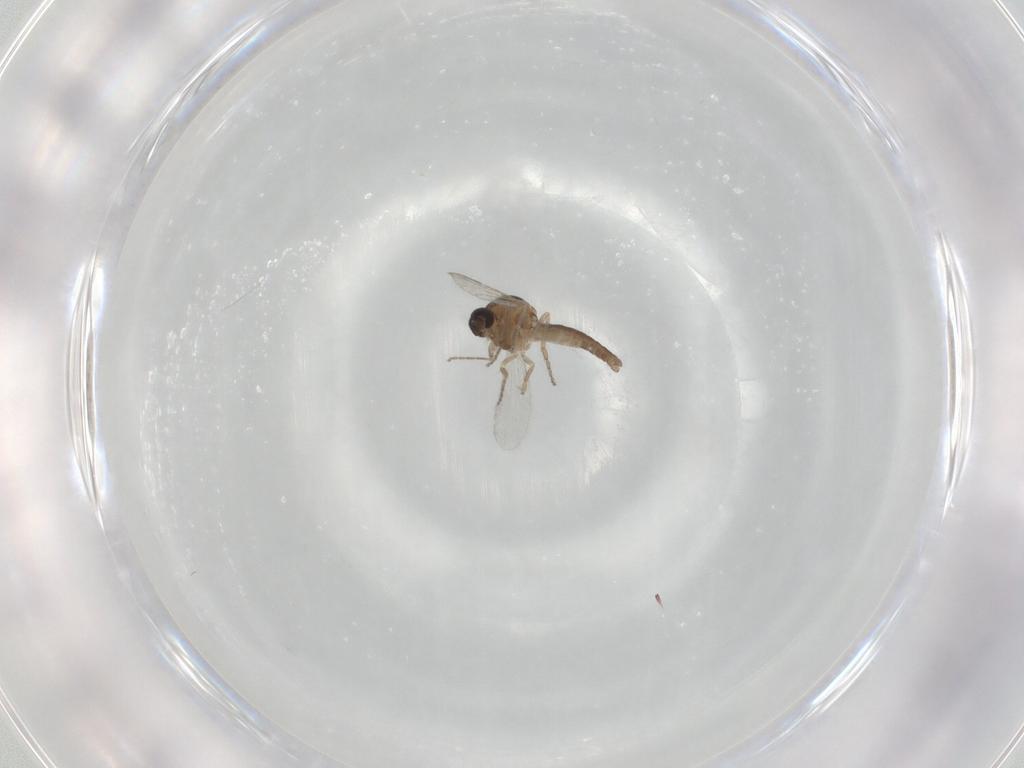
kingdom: Animalia
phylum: Arthropoda
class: Insecta
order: Diptera
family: Ceratopogonidae
